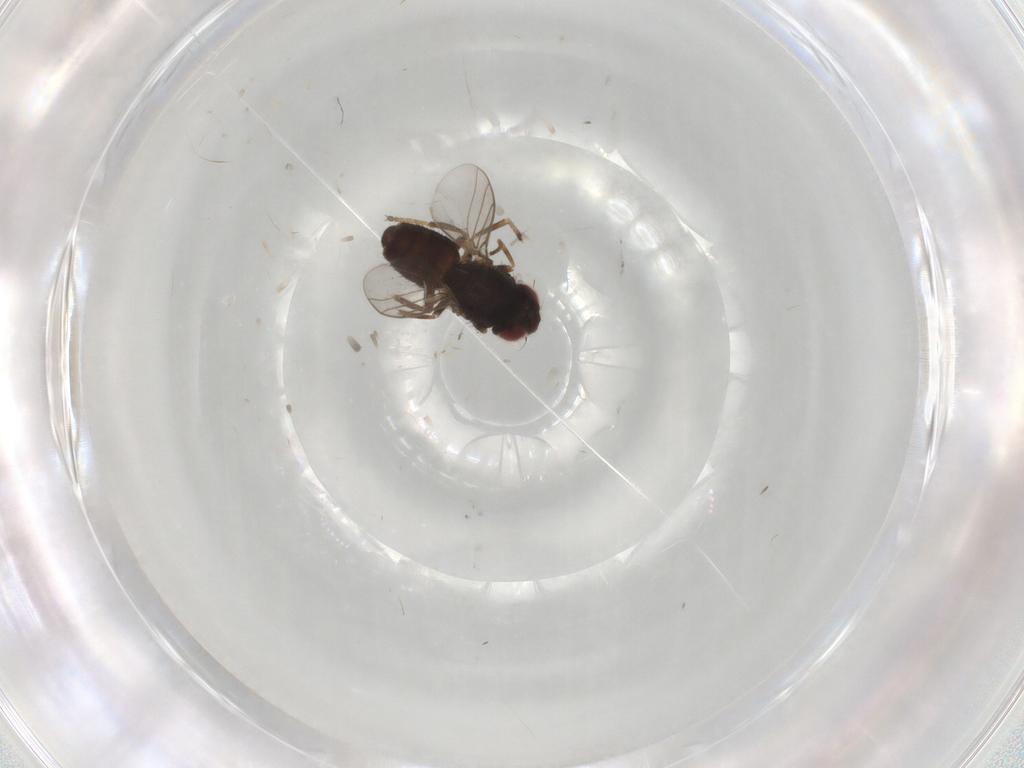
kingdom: Animalia
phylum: Arthropoda
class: Insecta
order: Diptera
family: Chloropidae
